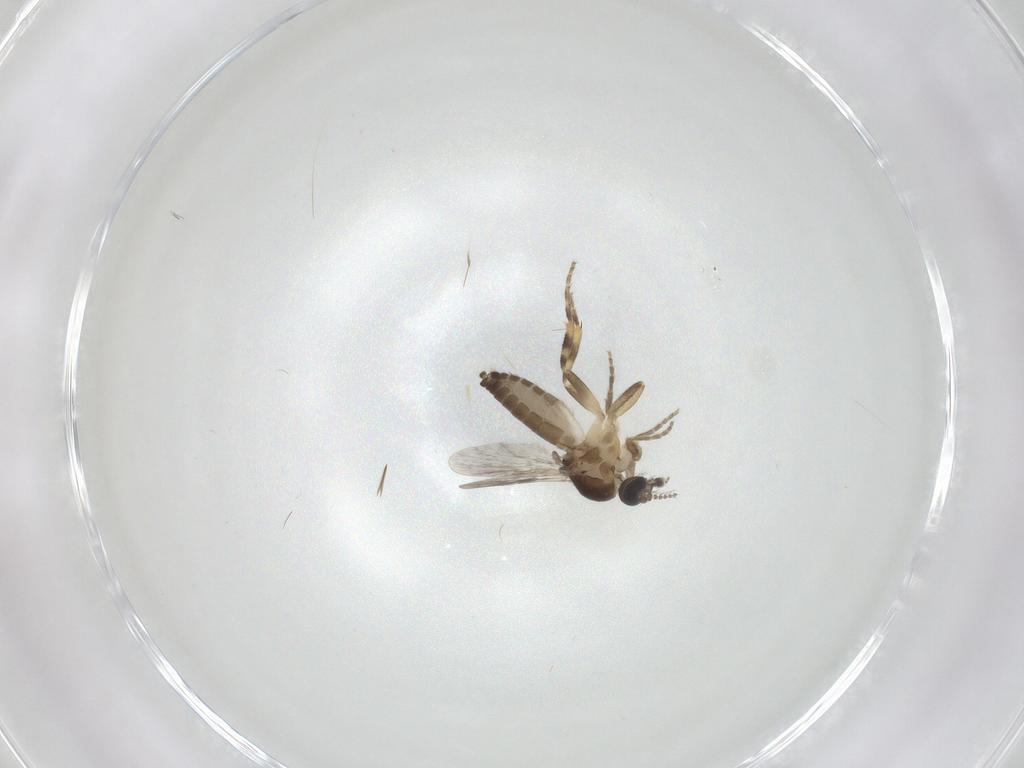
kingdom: Animalia
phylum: Arthropoda
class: Insecta
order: Diptera
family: Ceratopogonidae
